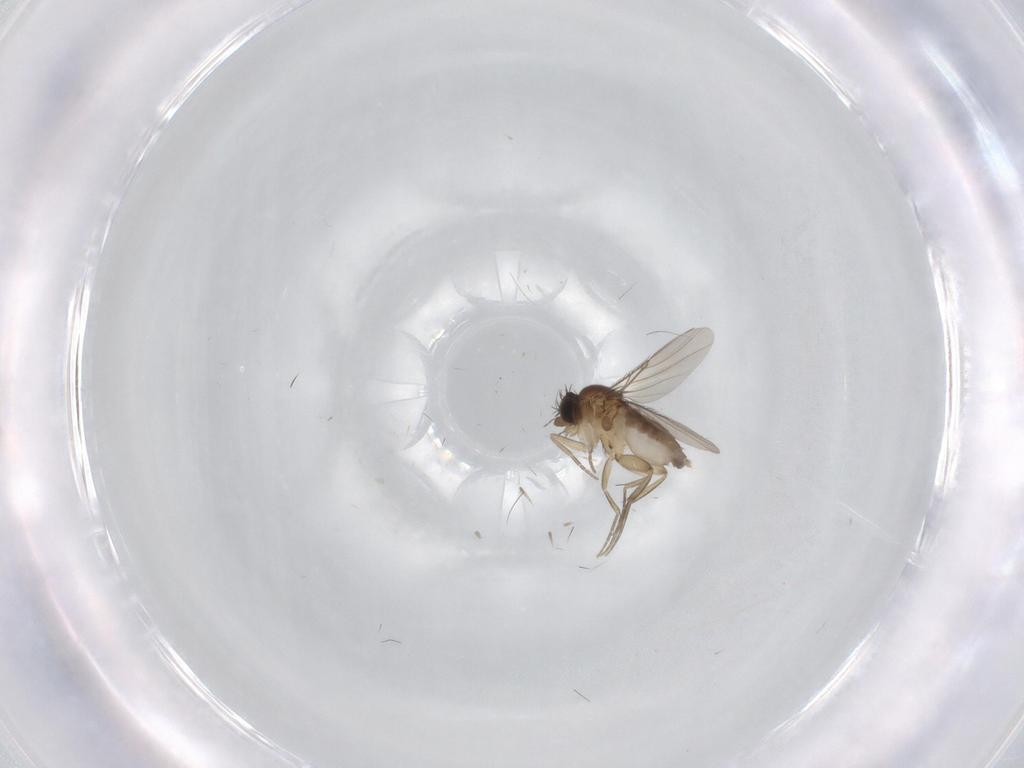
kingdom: Animalia
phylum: Arthropoda
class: Insecta
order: Diptera
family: Phoridae
